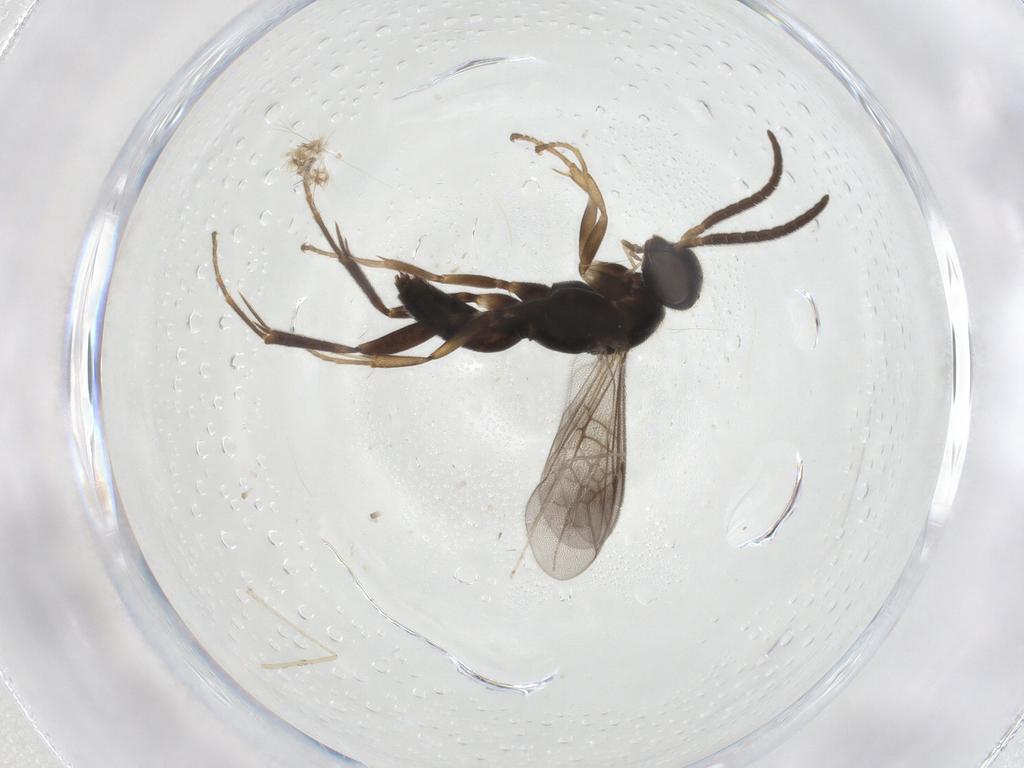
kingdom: Animalia
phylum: Arthropoda
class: Insecta
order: Hymenoptera
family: Pompilidae
